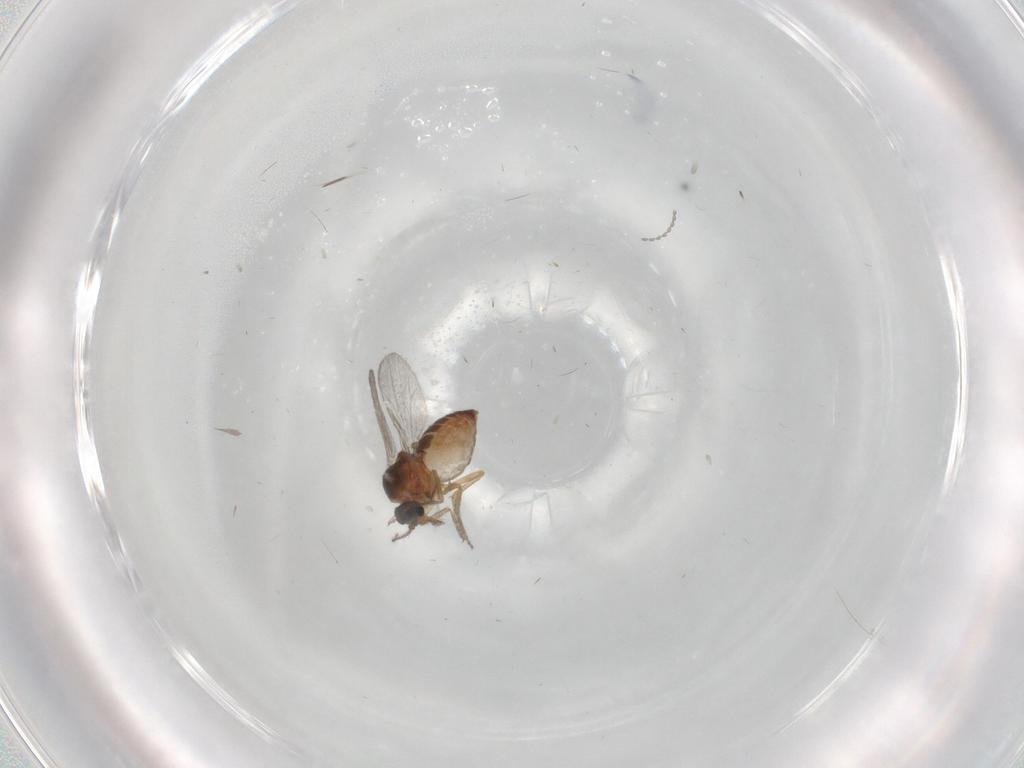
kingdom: Animalia
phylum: Arthropoda
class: Insecta
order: Diptera
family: Cecidomyiidae
